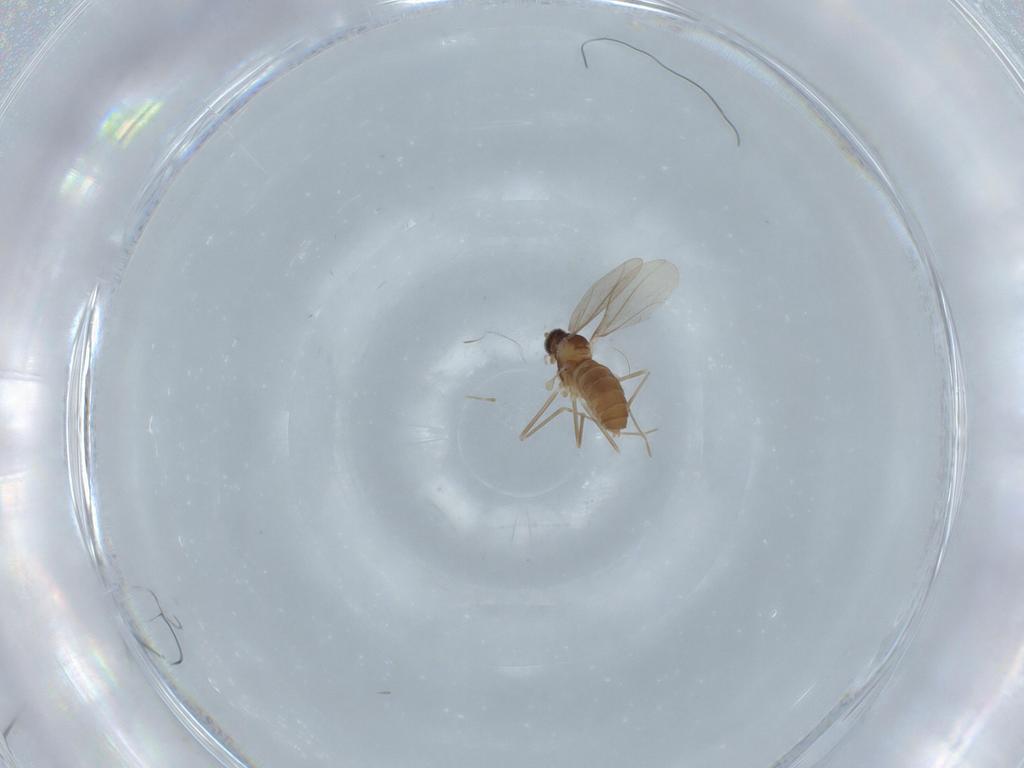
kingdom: Animalia
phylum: Arthropoda
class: Insecta
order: Diptera
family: Cecidomyiidae
